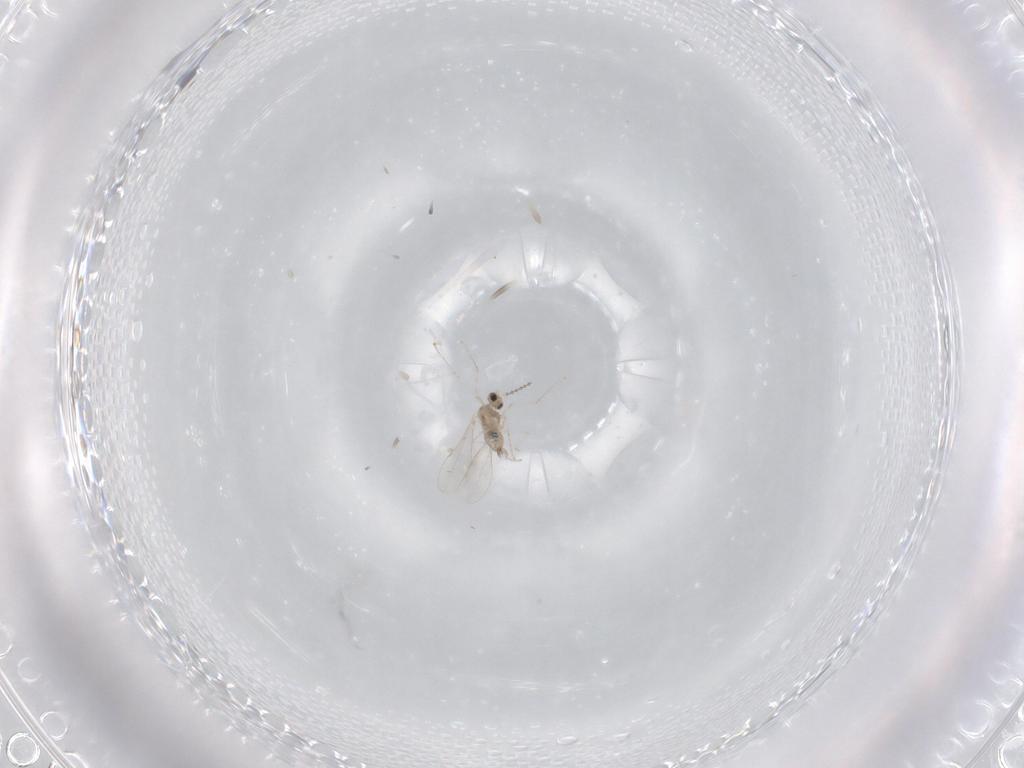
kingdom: Animalia
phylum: Arthropoda
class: Insecta
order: Diptera
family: Cecidomyiidae
